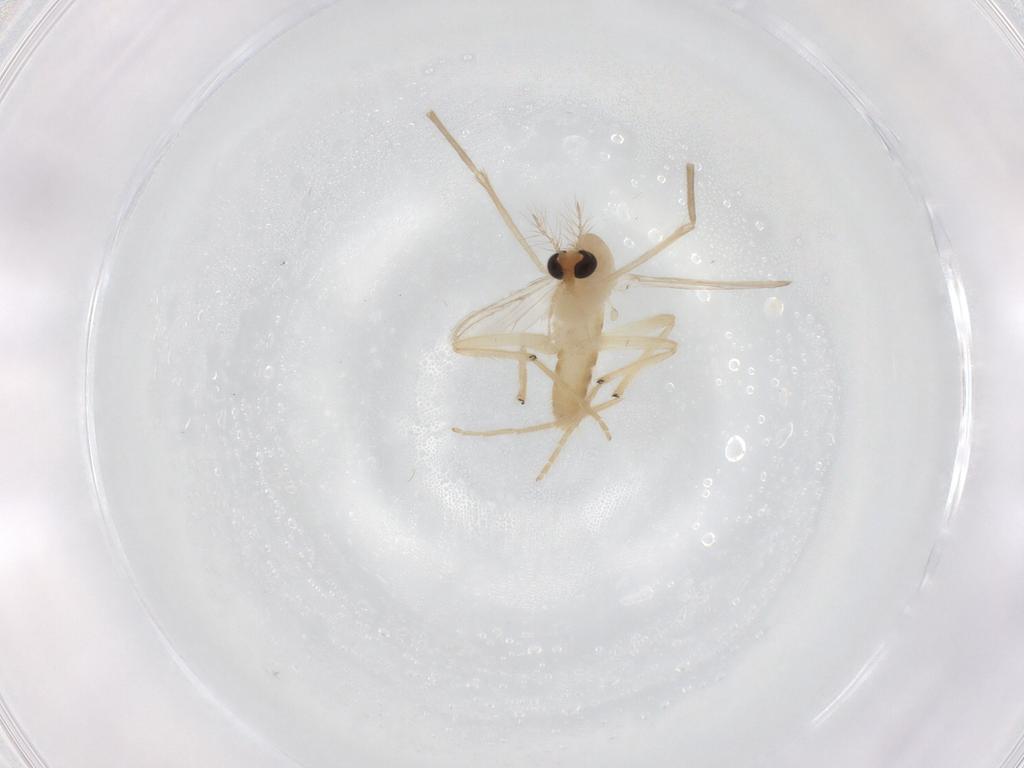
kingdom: Animalia
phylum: Arthropoda
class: Insecta
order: Diptera
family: Chironomidae
